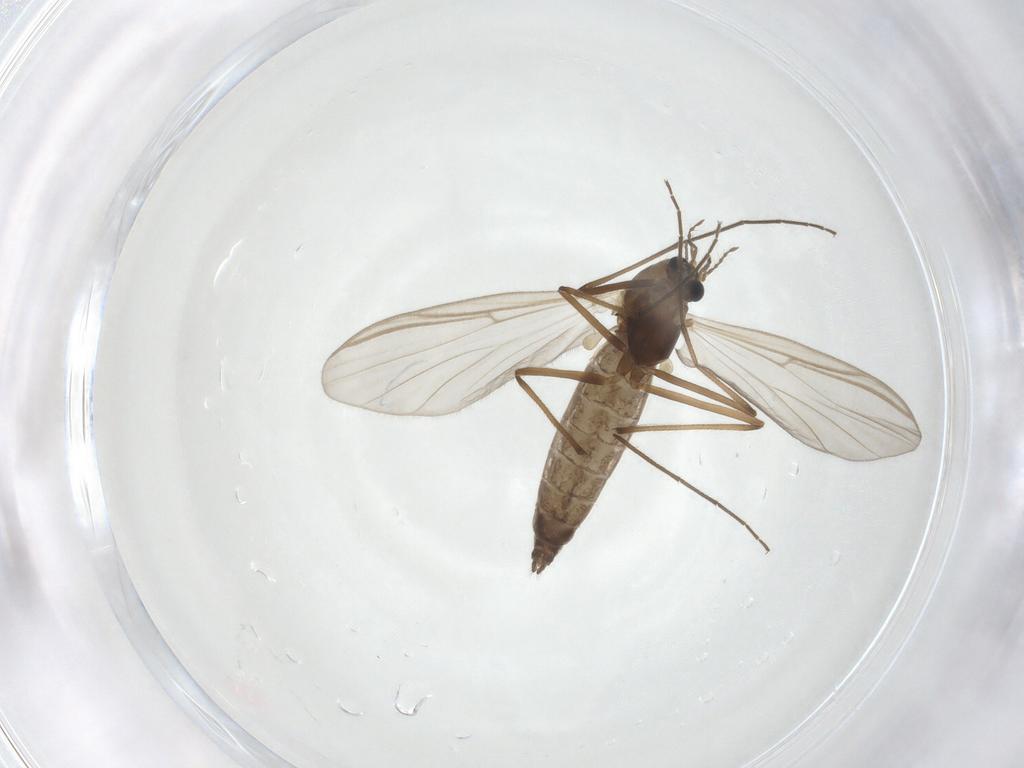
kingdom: Animalia
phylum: Arthropoda
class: Insecta
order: Diptera
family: Chironomidae
